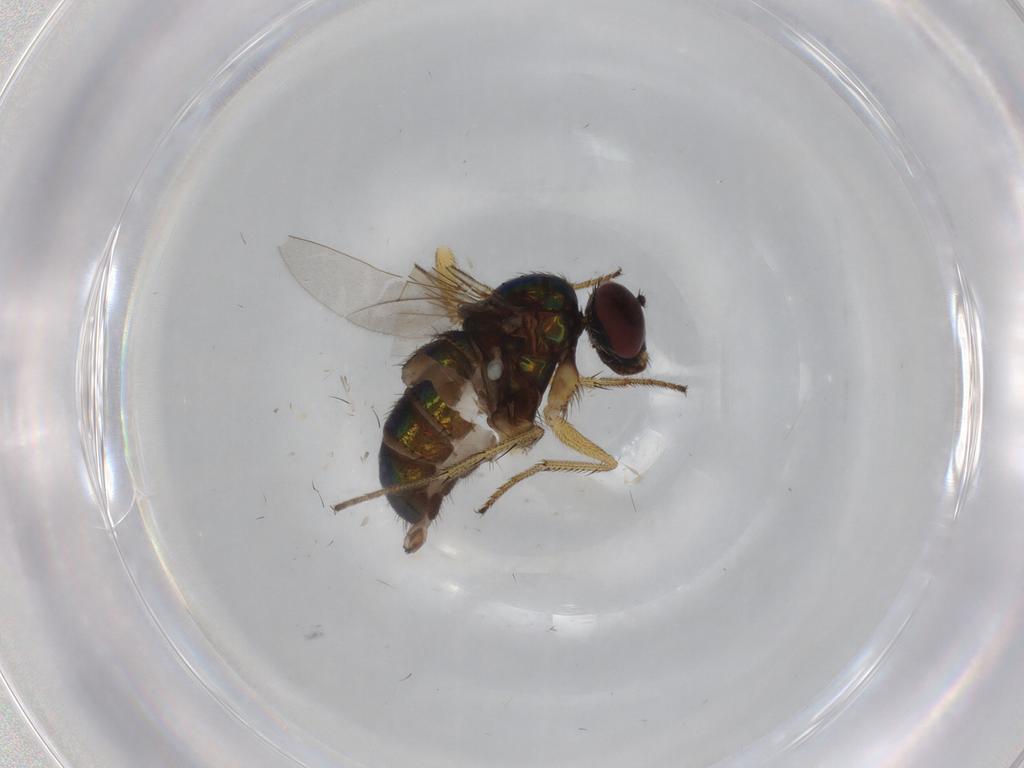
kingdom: Animalia
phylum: Arthropoda
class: Insecta
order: Diptera
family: Dolichopodidae
